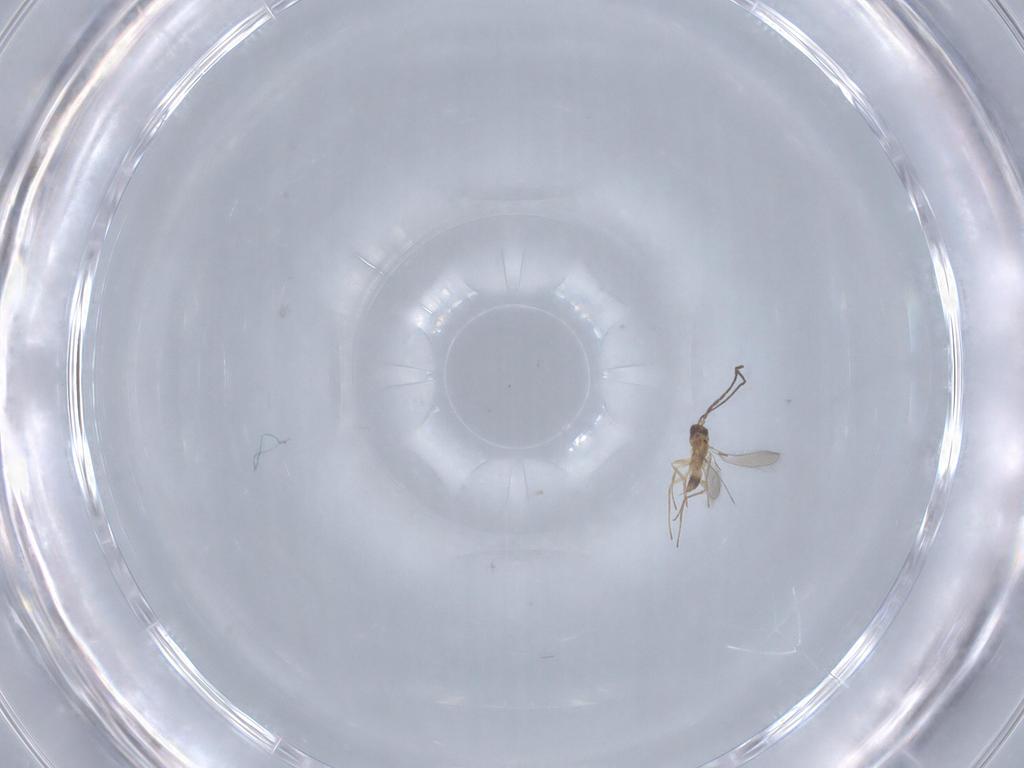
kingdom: Animalia
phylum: Arthropoda
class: Insecta
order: Hymenoptera
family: Mymaridae
